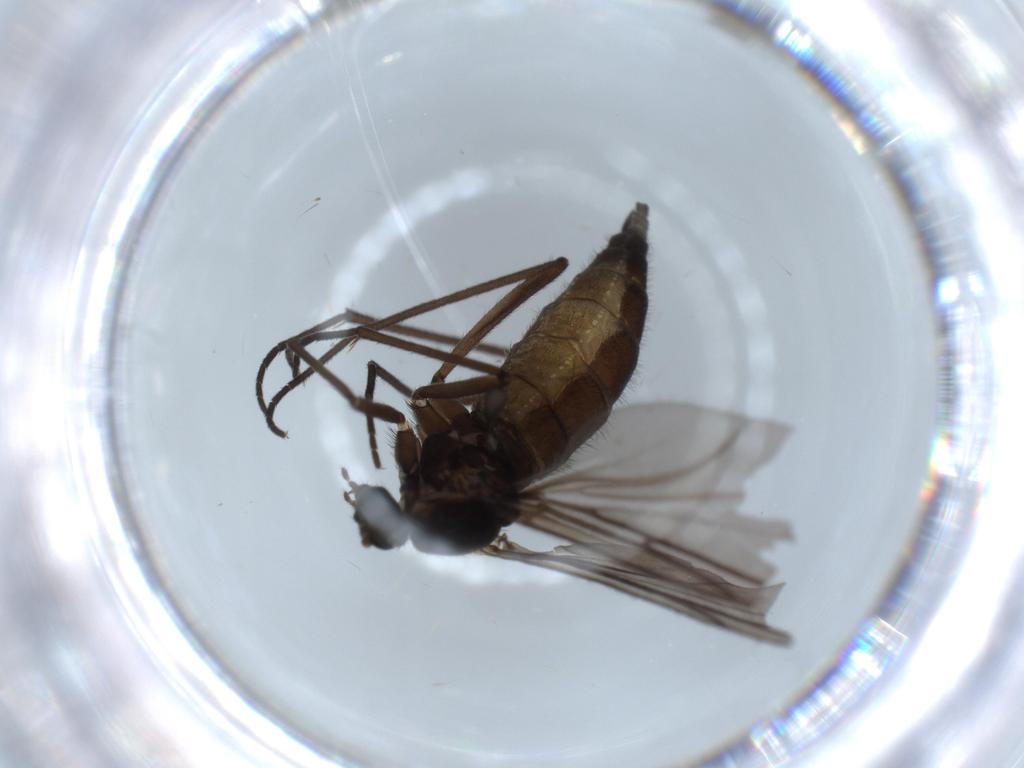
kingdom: Animalia
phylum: Arthropoda
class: Insecta
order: Diptera
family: Sciaridae
